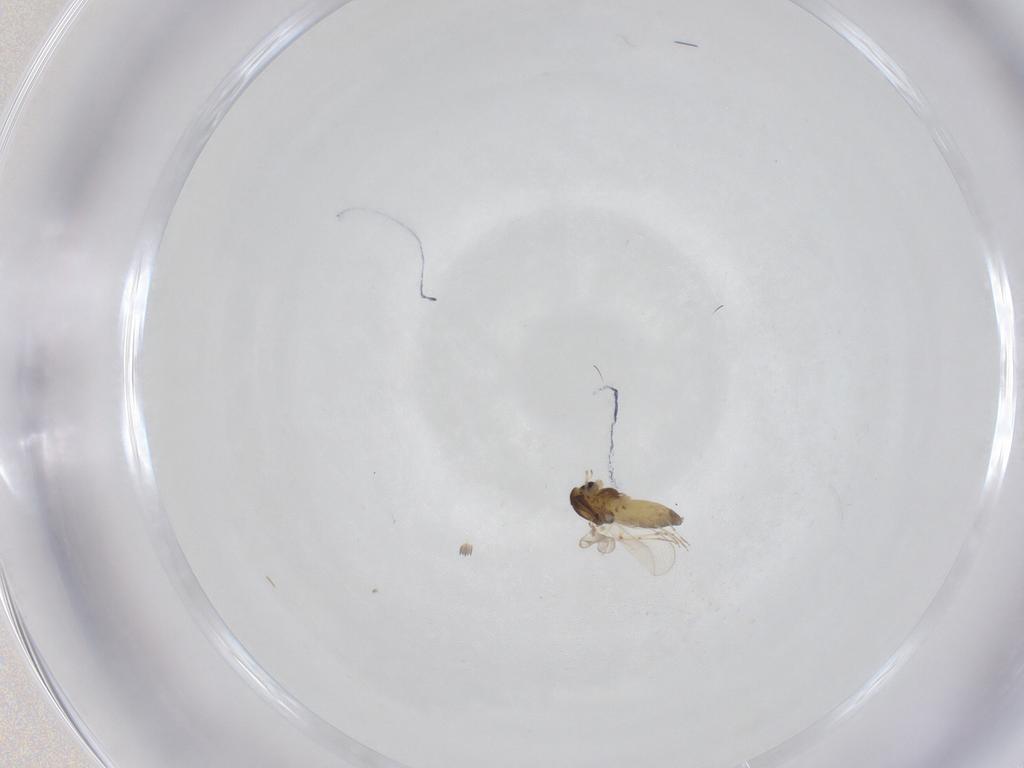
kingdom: Animalia
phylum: Arthropoda
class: Insecta
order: Diptera
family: Chironomidae
